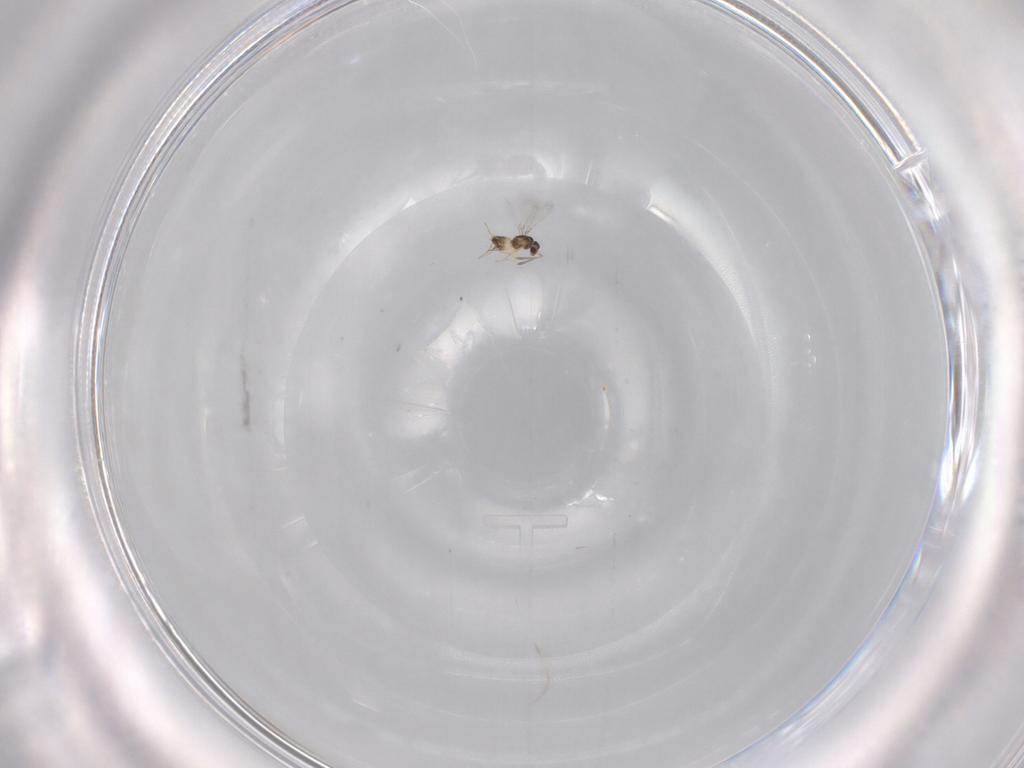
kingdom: Animalia
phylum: Arthropoda
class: Insecta
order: Hymenoptera
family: Mymaridae
